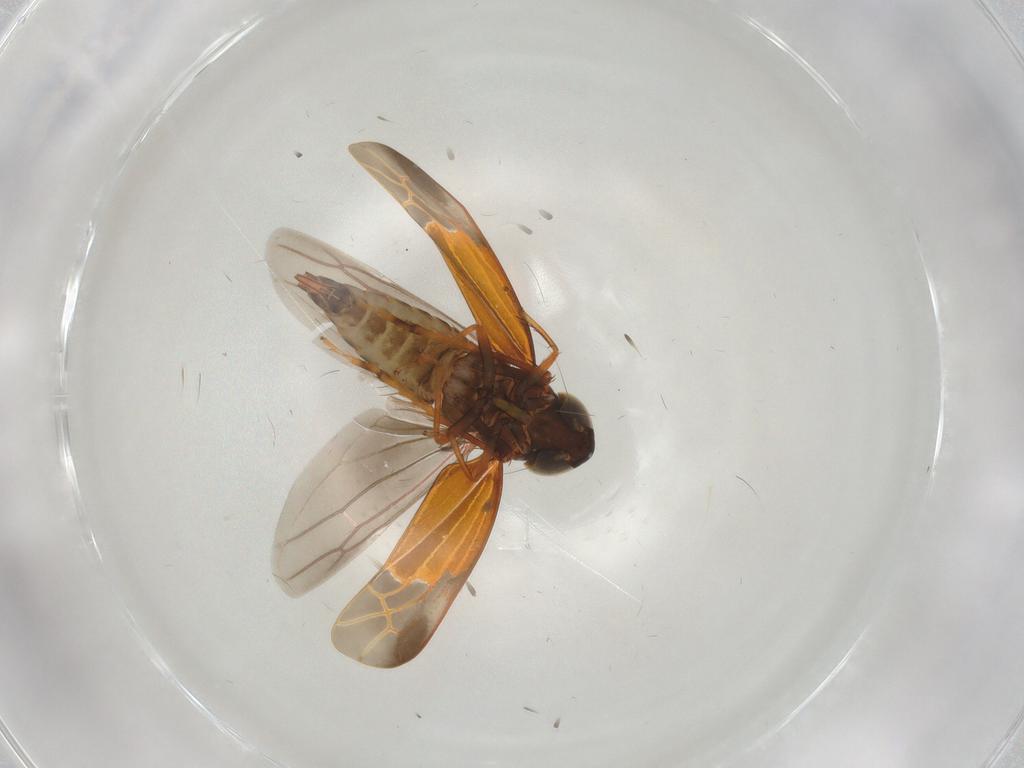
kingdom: Animalia
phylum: Arthropoda
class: Insecta
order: Hemiptera
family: Cicadellidae
